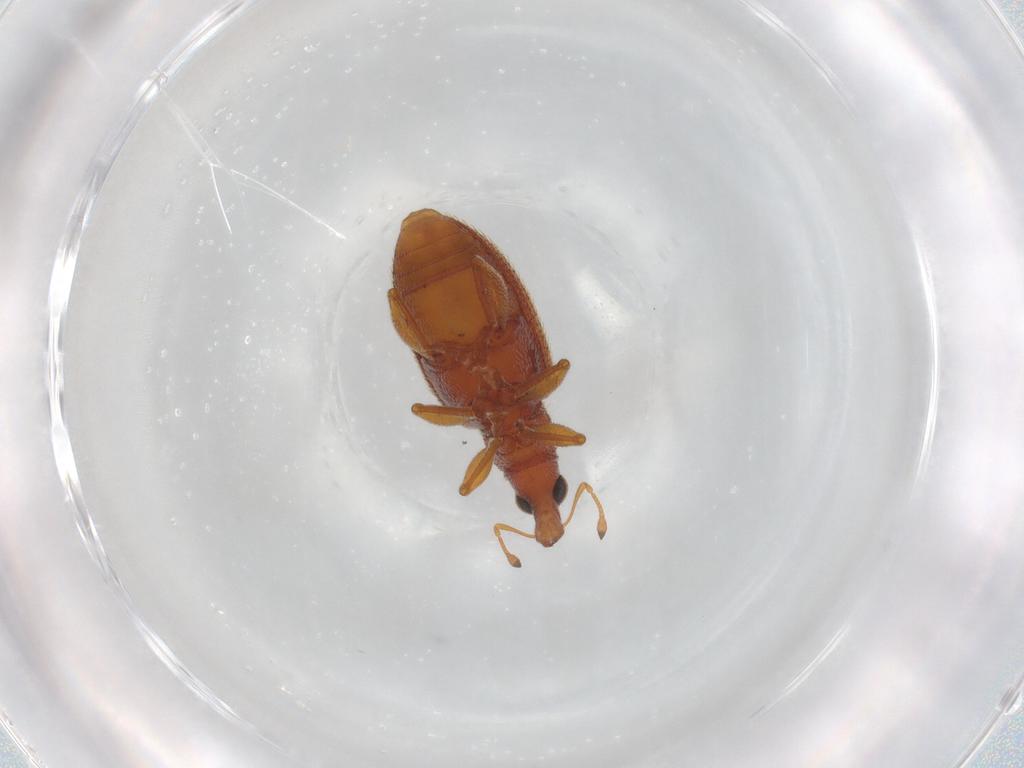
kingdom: Animalia
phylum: Arthropoda
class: Insecta
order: Coleoptera
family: Curculionidae
